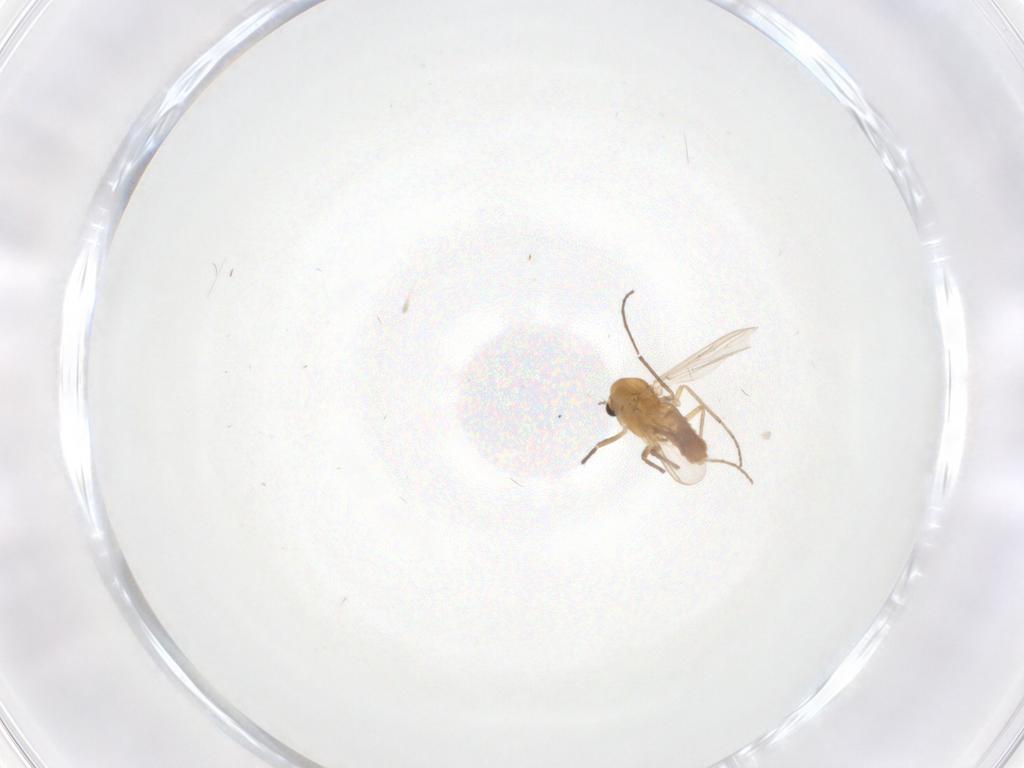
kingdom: Animalia
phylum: Arthropoda
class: Insecta
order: Diptera
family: Chironomidae
